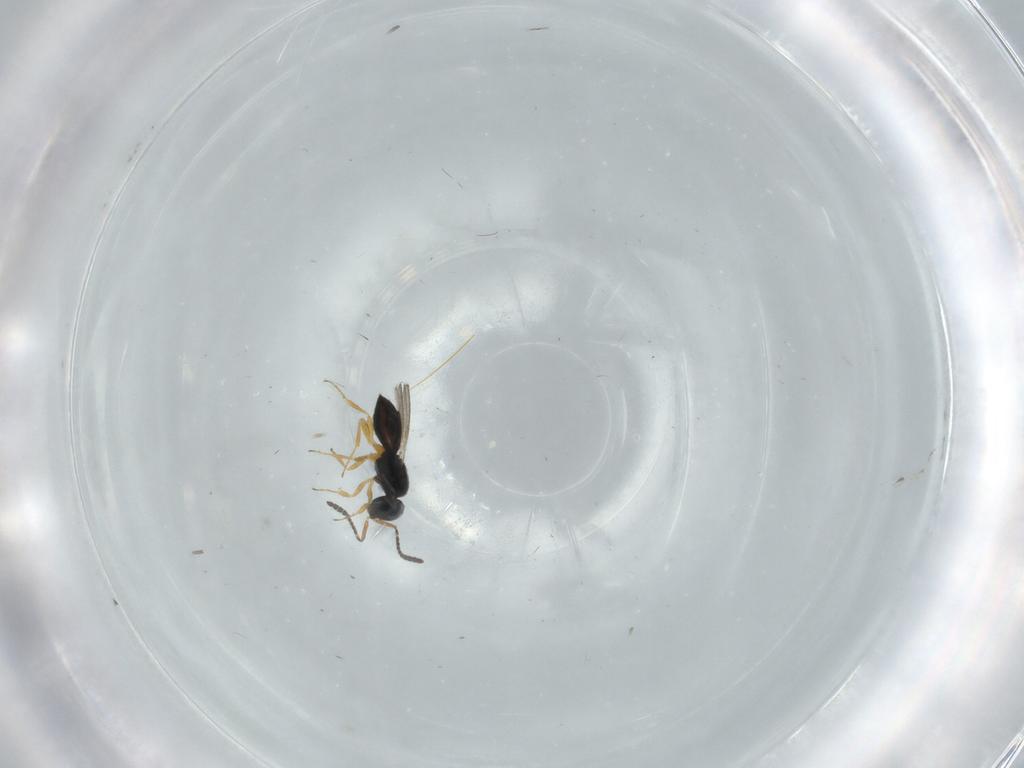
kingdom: Animalia
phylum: Arthropoda
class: Insecta
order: Hymenoptera
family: Scelionidae
